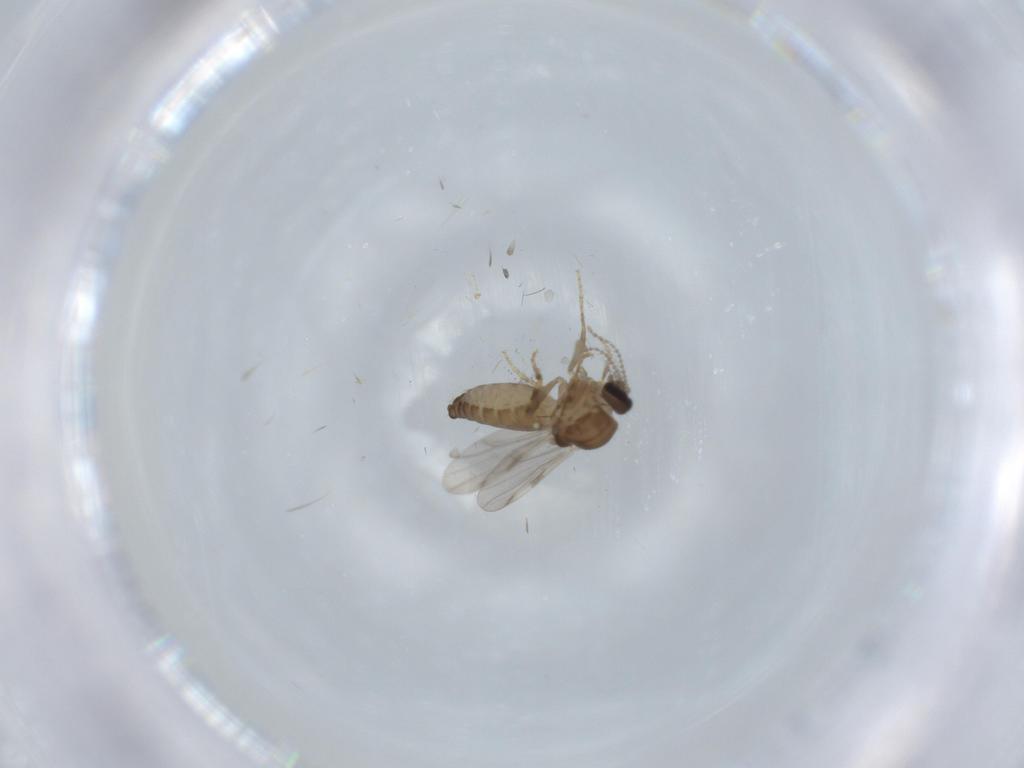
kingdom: Animalia
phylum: Arthropoda
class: Insecta
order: Diptera
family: Ceratopogonidae
